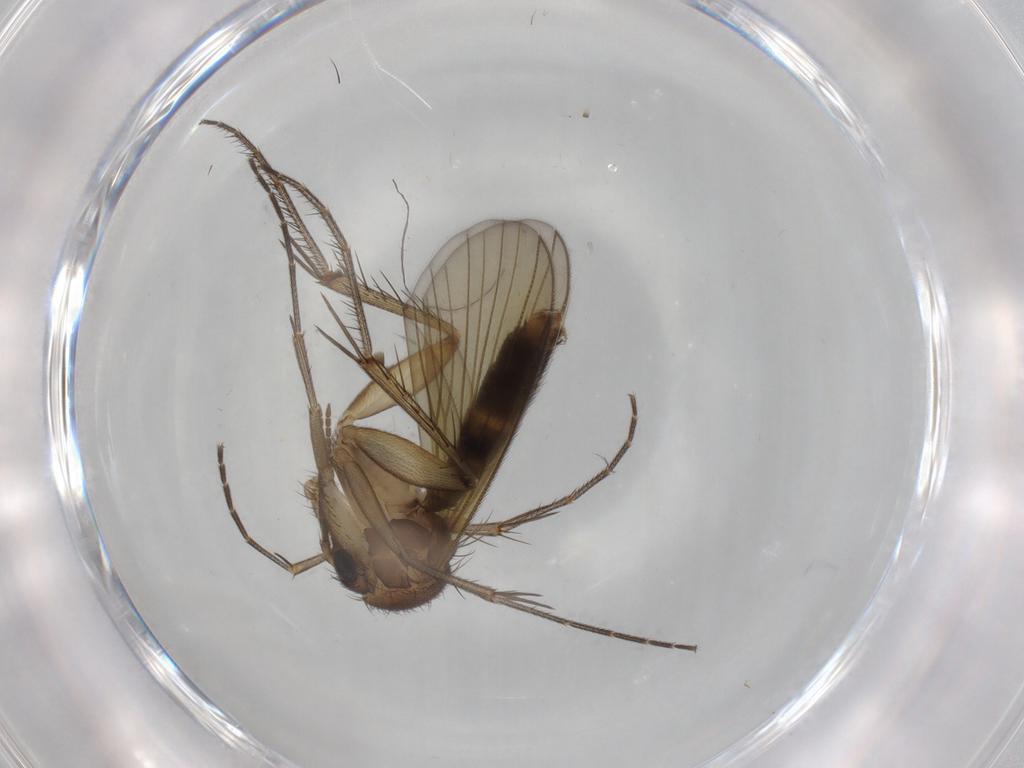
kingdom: Animalia
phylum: Arthropoda
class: Insecta
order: Diptera
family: Mycetophilidae
